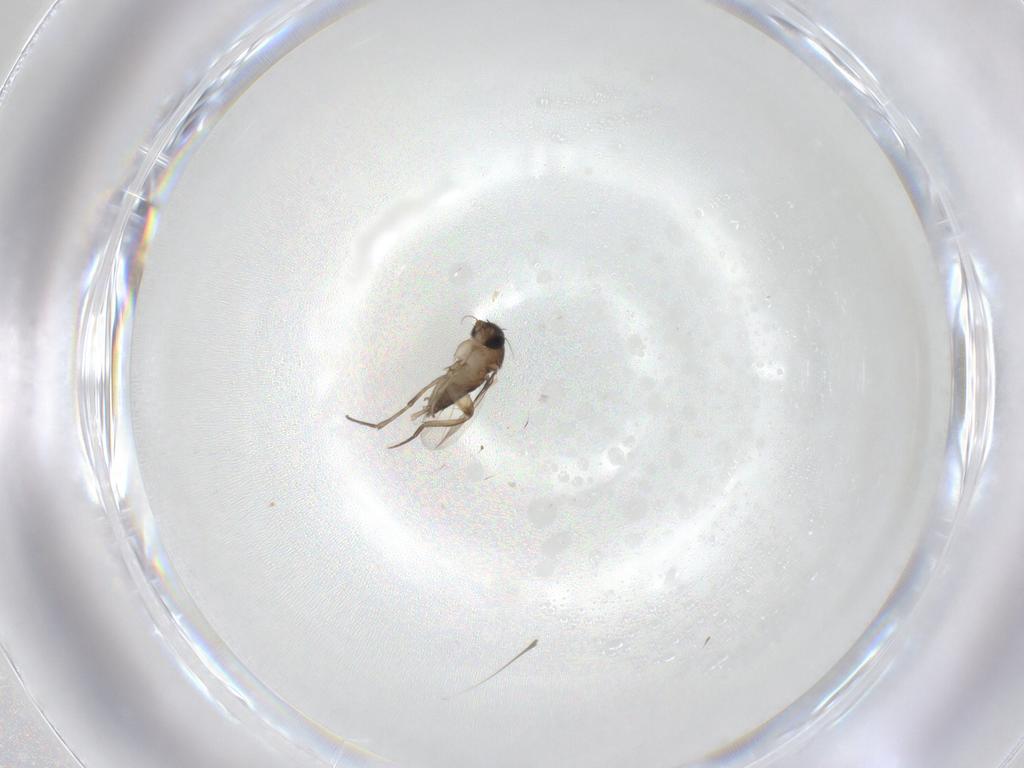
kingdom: Animalia
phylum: Arthropoda
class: Insecta
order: Diptera
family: Phoridae
